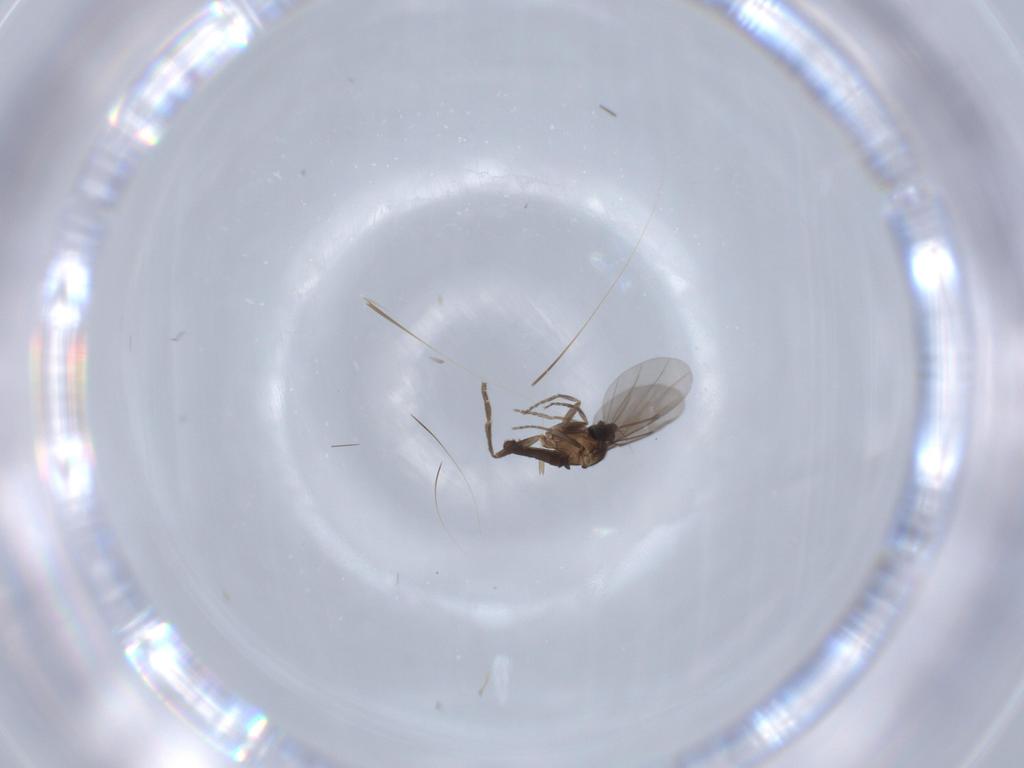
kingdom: Animalia
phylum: Arthropoda
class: Insecta
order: Diptera
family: Phoridae
